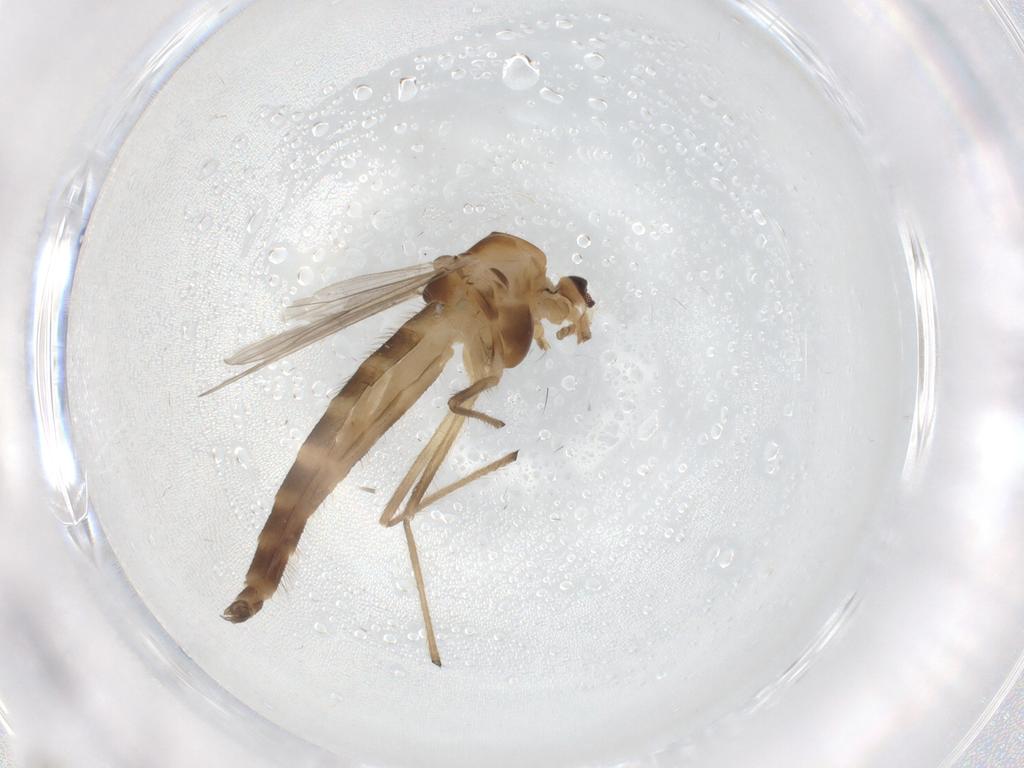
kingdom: Animalia
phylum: Arthropoda
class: Insecta
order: Diptera
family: Chironomidae
